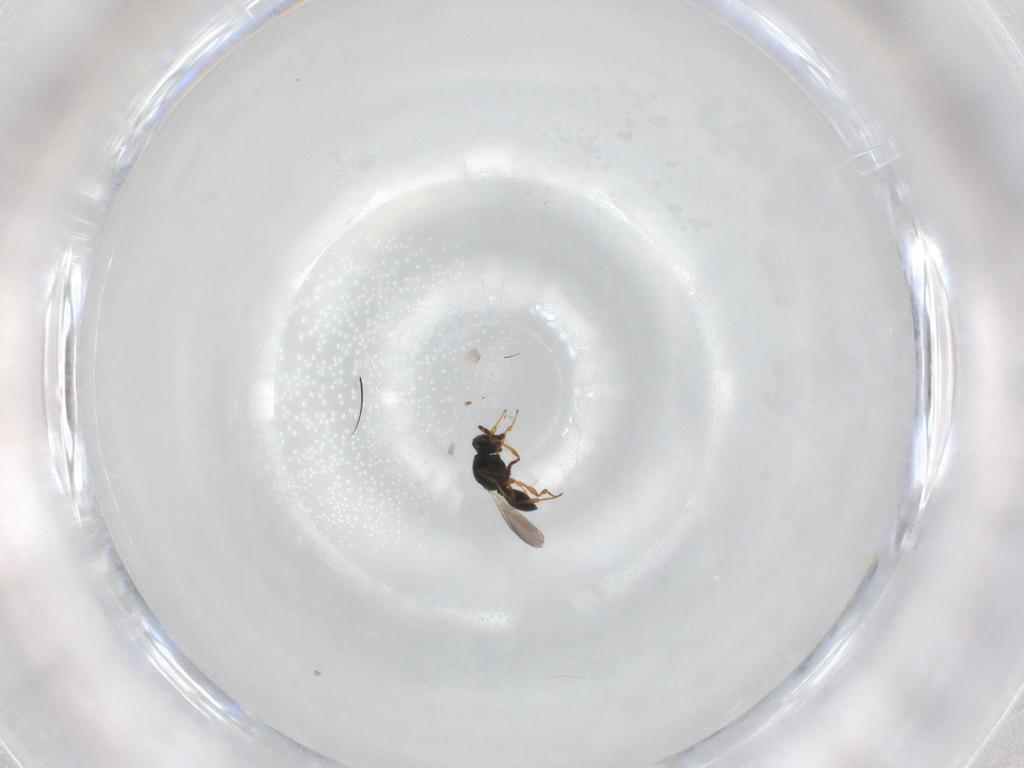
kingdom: Animalia
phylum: Arthropoda
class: Insecta
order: Hymenoptera
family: Platygastridae
